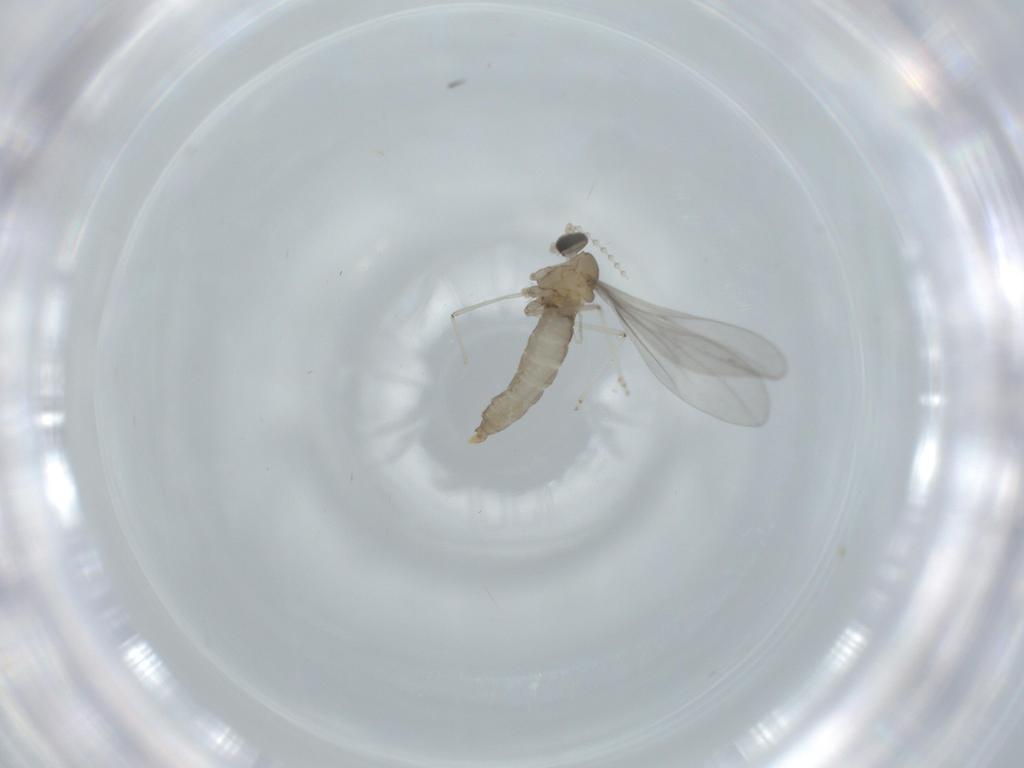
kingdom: Animalia
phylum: Arthropoda
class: Insecta
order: Diptera
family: Cecidomyiidae
